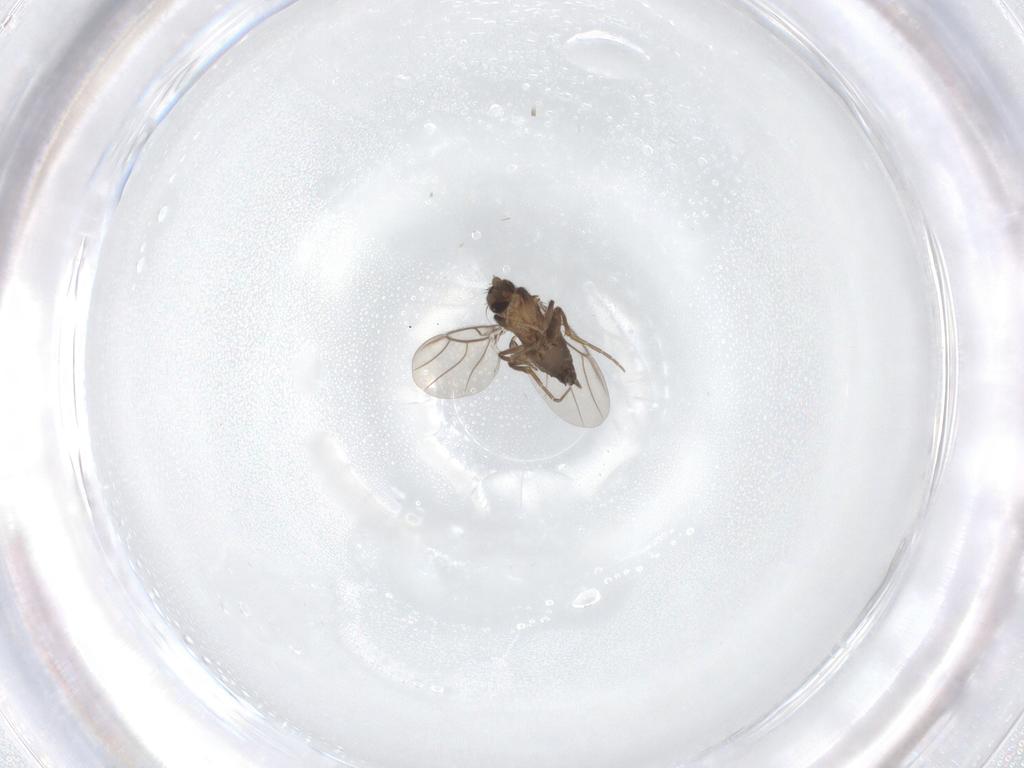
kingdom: Animalia
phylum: Arthropoda
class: Insecta
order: Diptera
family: Phoridae
